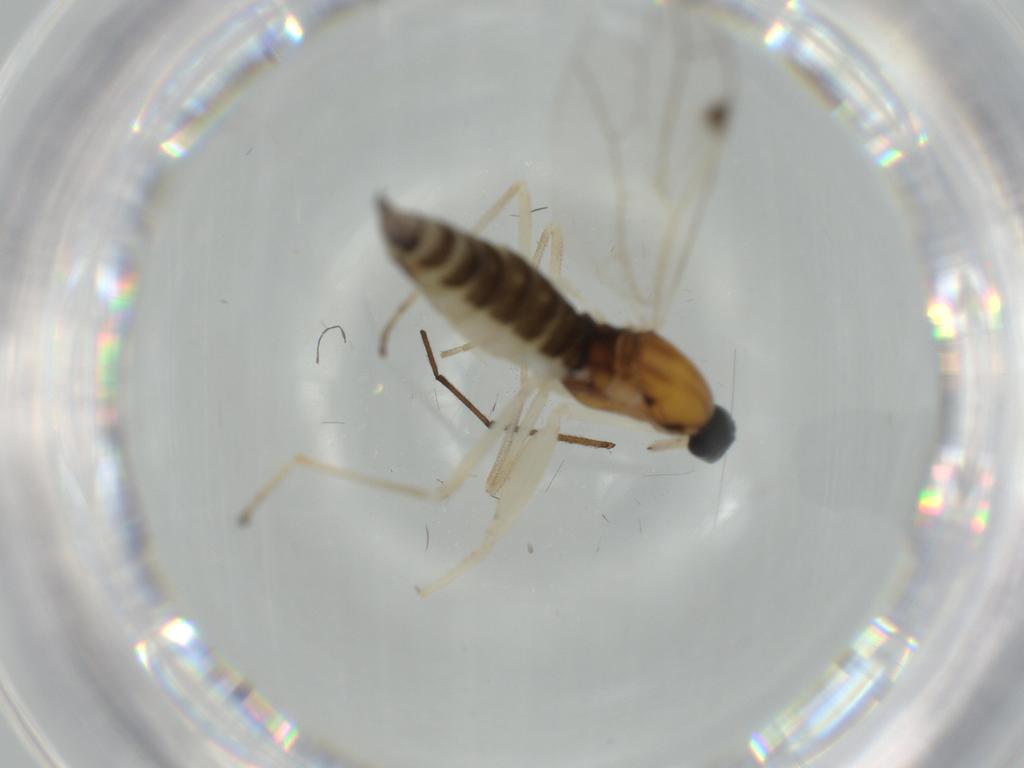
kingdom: Animalia
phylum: Arthropoda
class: Insecta
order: Diptera
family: Empididae
